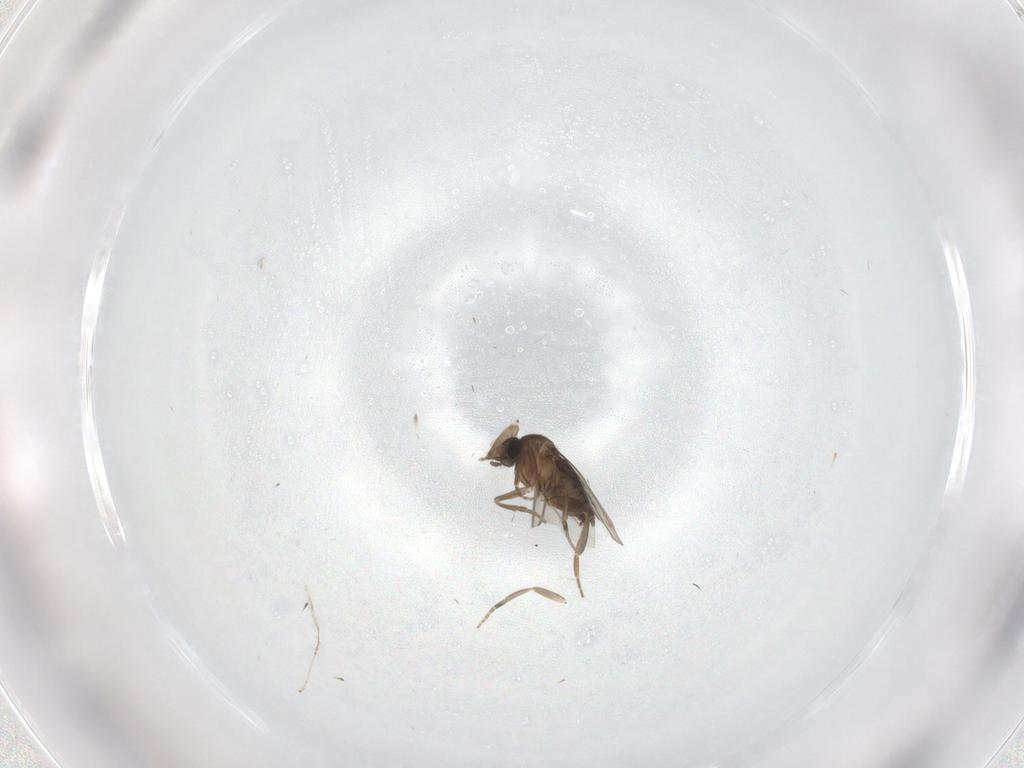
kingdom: Animalia
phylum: Arthropoda
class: Insecta
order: Diptera
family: Phoridae
